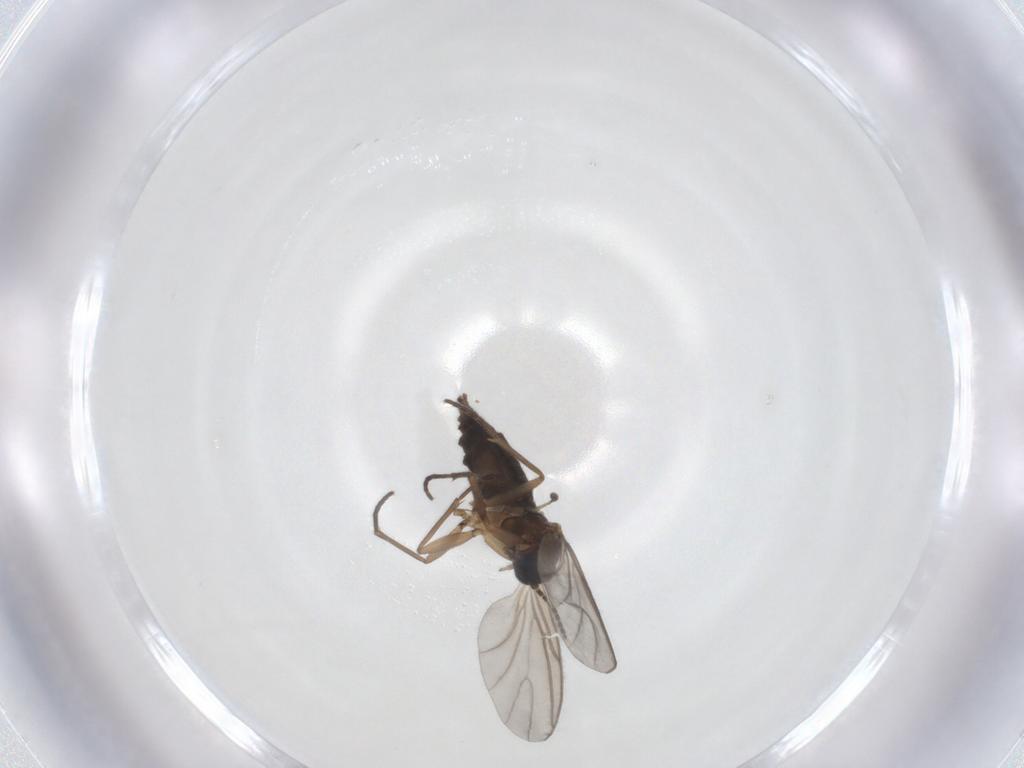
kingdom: Animalia
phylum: Arthropoda
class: Insecta
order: Diptera
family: Sciaridae
